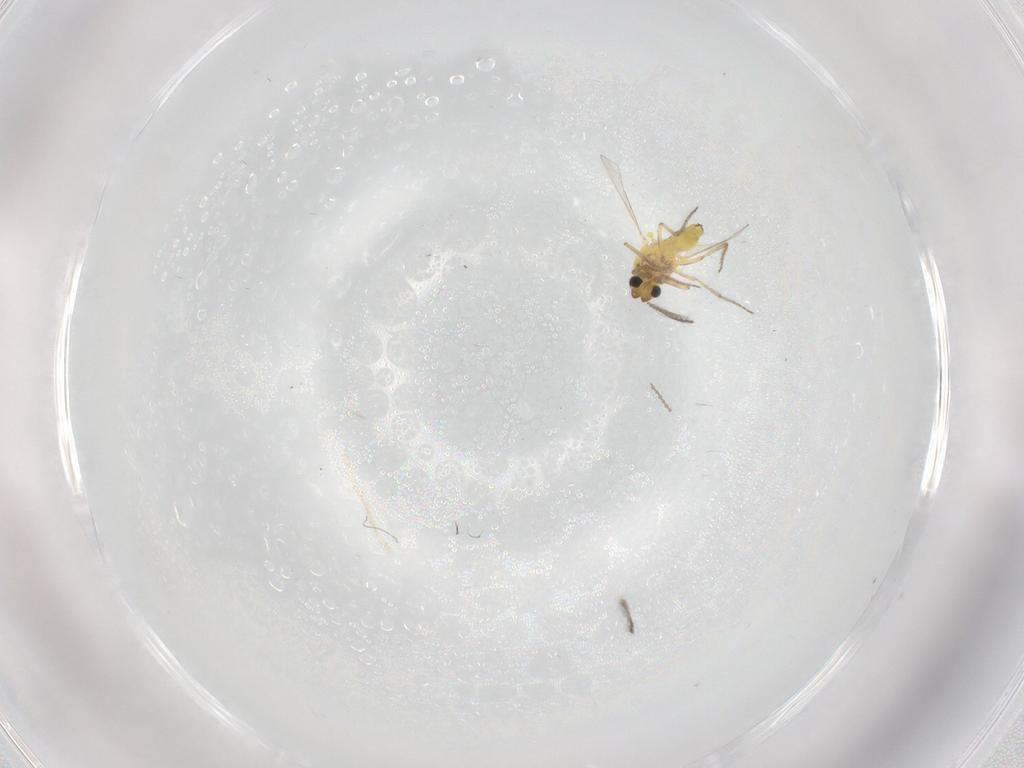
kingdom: Animalia
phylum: Arthropoda
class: Insecta
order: Diptera
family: Ceratopogonidae
